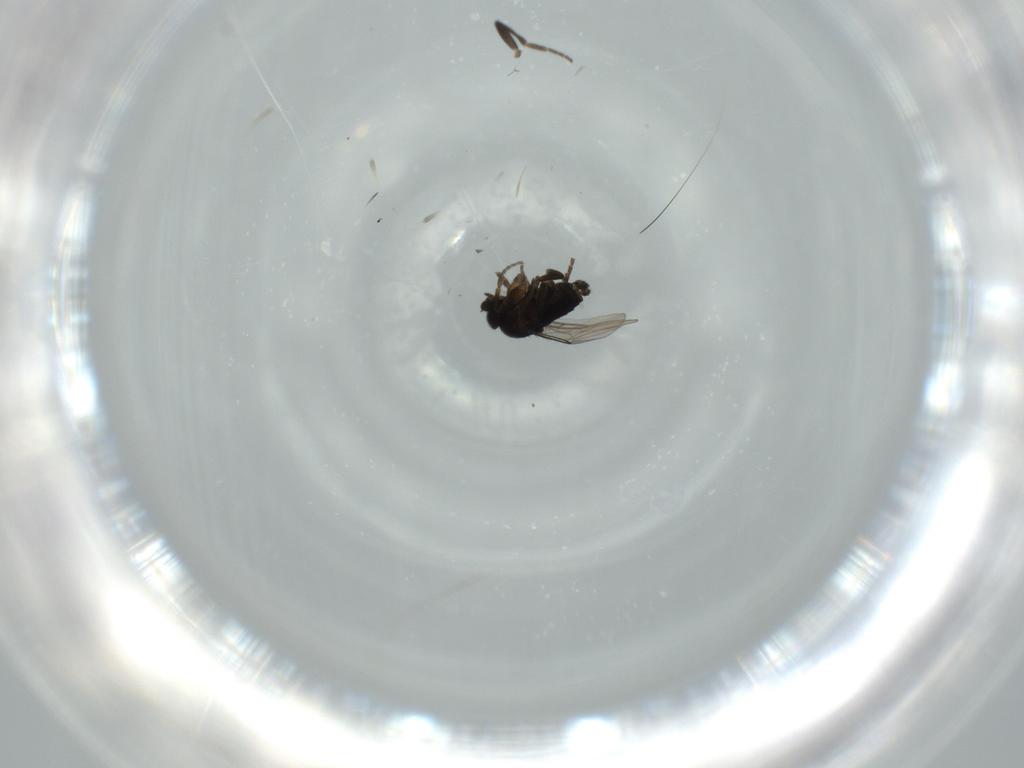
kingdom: Animalia
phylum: Arthropoda
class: Insecta
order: Diptera
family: Phoridae
